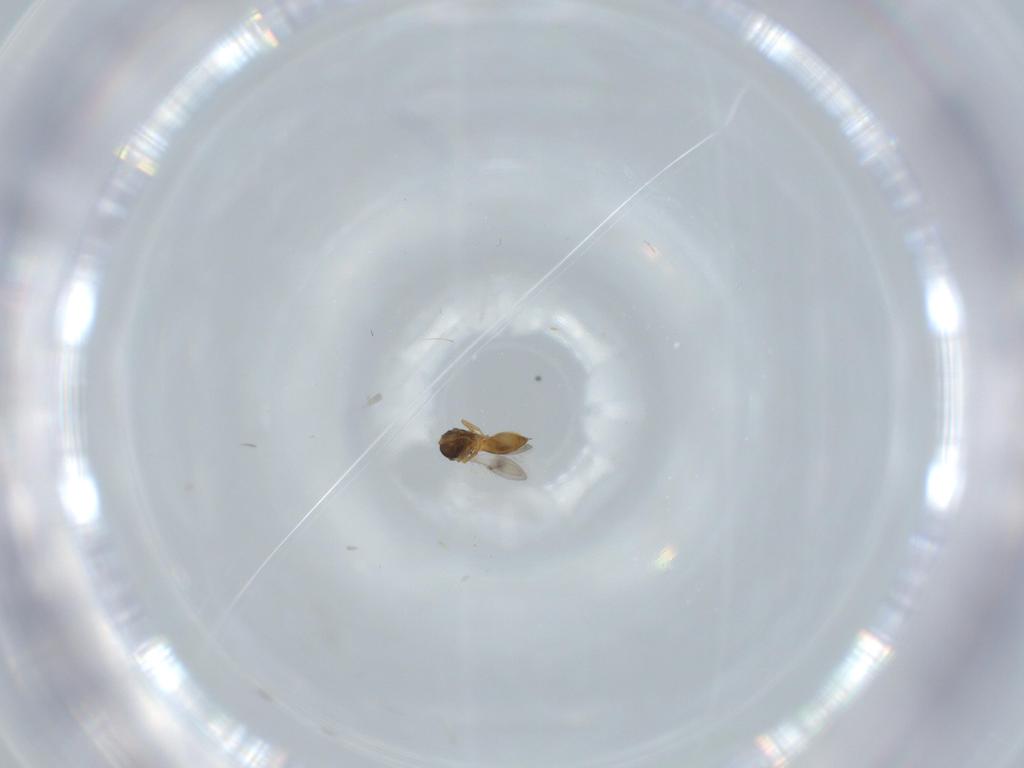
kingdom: Animalia
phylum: Arthropoda
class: Insecta
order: Hymenoptera
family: Scelionidae
